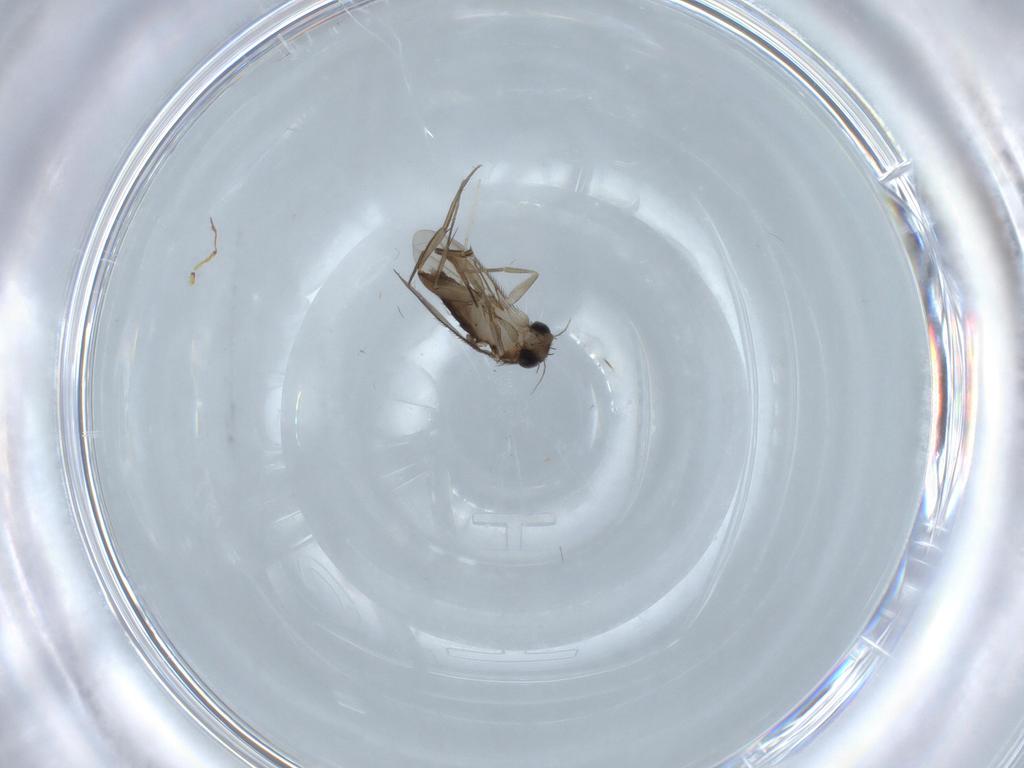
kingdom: Animalia
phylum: Arthropoda
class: Insecta
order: Diptera
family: Phoridae
